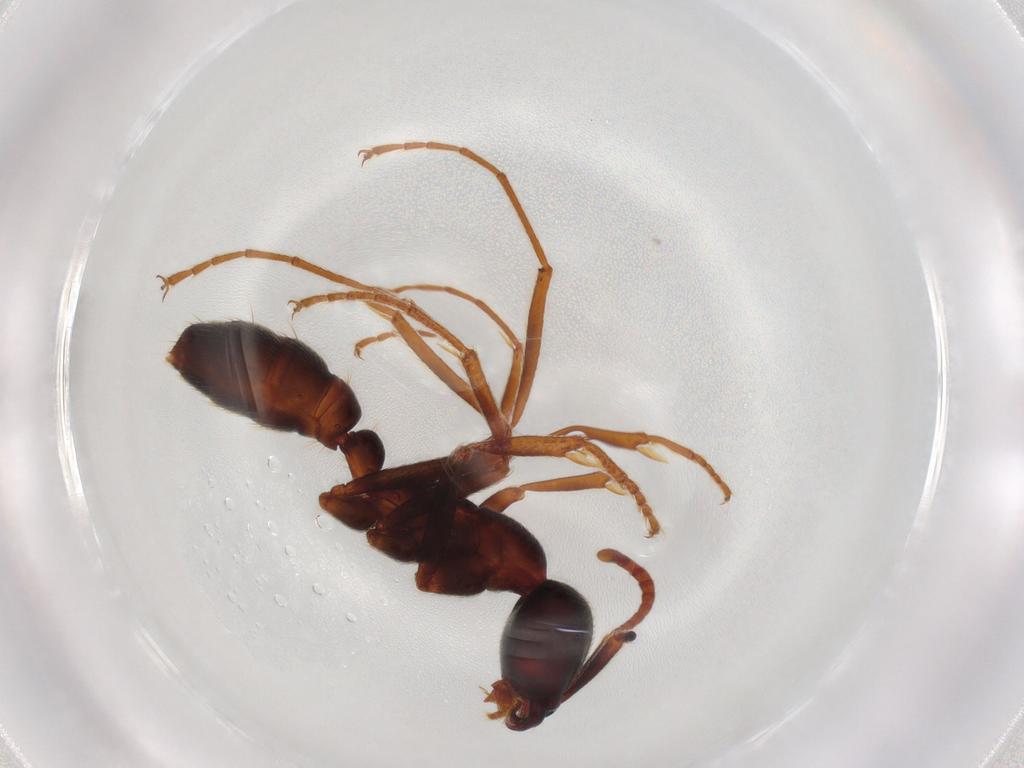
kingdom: Animalia
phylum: Arthropoda
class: Insecta
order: Hymenoptera
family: Formicidae
